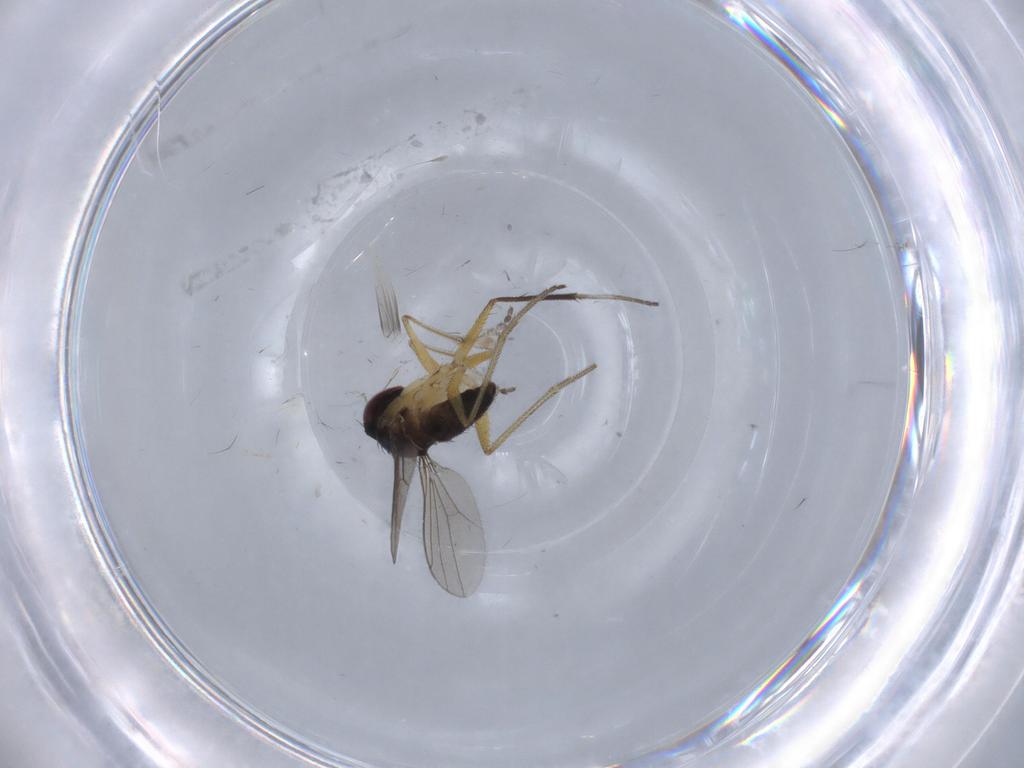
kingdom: Animalia
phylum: Arthropoda
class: Insecta
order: Diptera
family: Dolichopodidae
